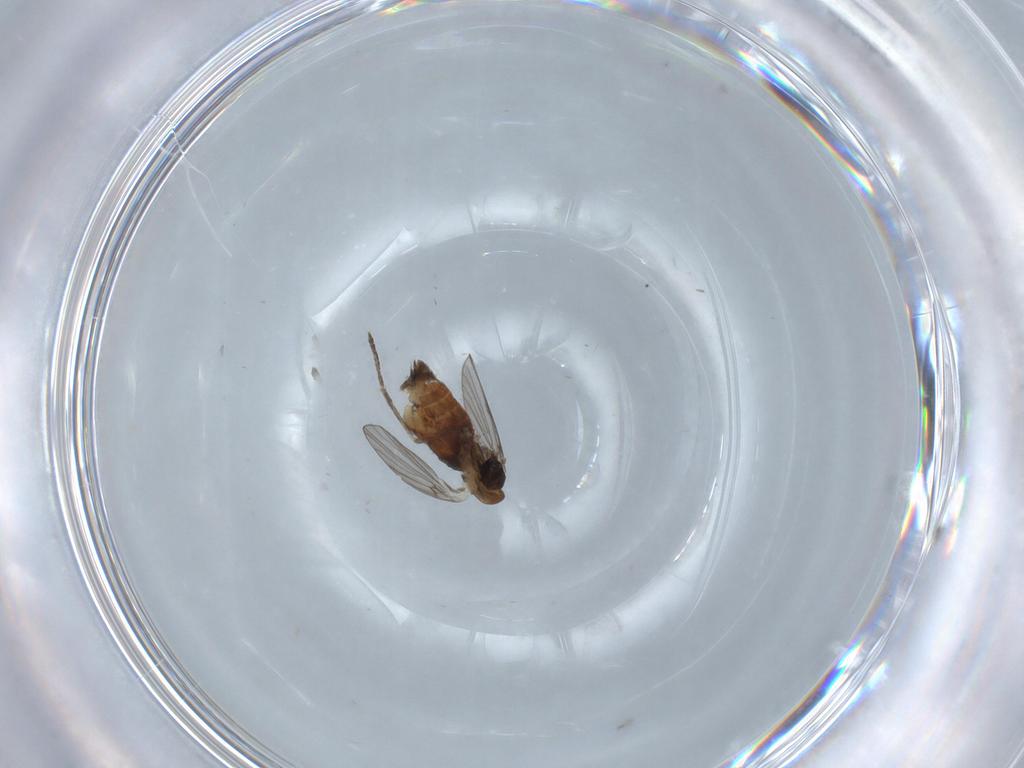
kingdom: Animalia
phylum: Arthropoda
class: Insecta
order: Diptera
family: Psychodidae
